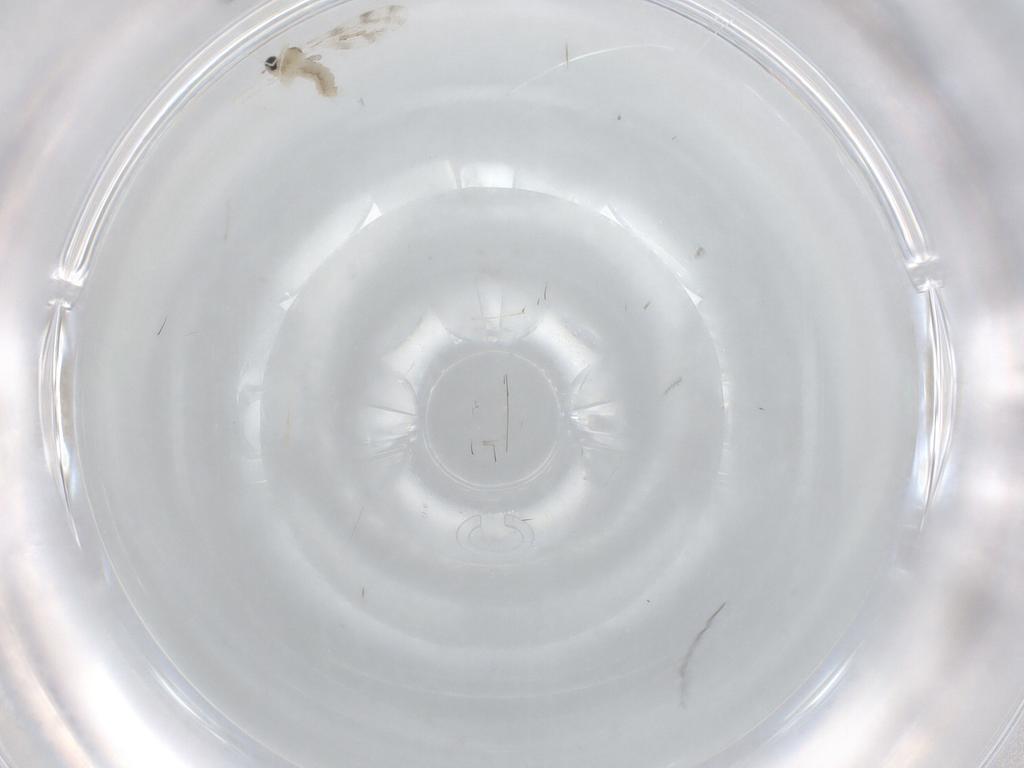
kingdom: Animalia
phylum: Arthropoda
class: Insecta
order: Diptera
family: Cecidomyiidae
